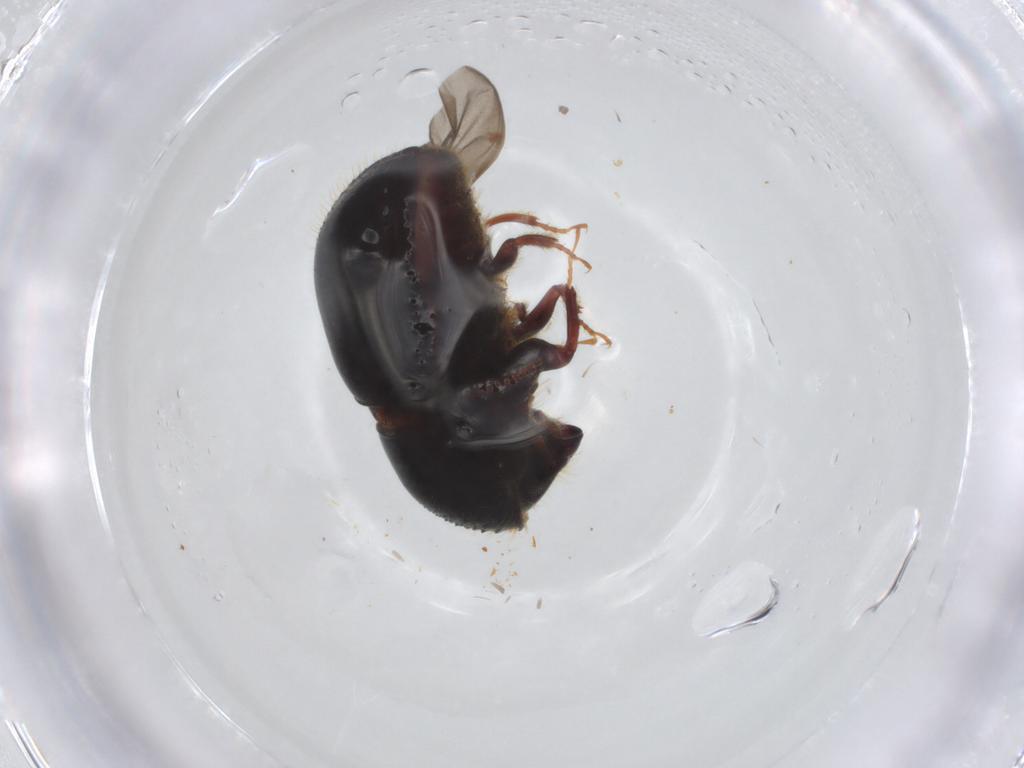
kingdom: Animalia
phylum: Arthropoda
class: Insecta
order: Coleoptera
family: Curculionidae
